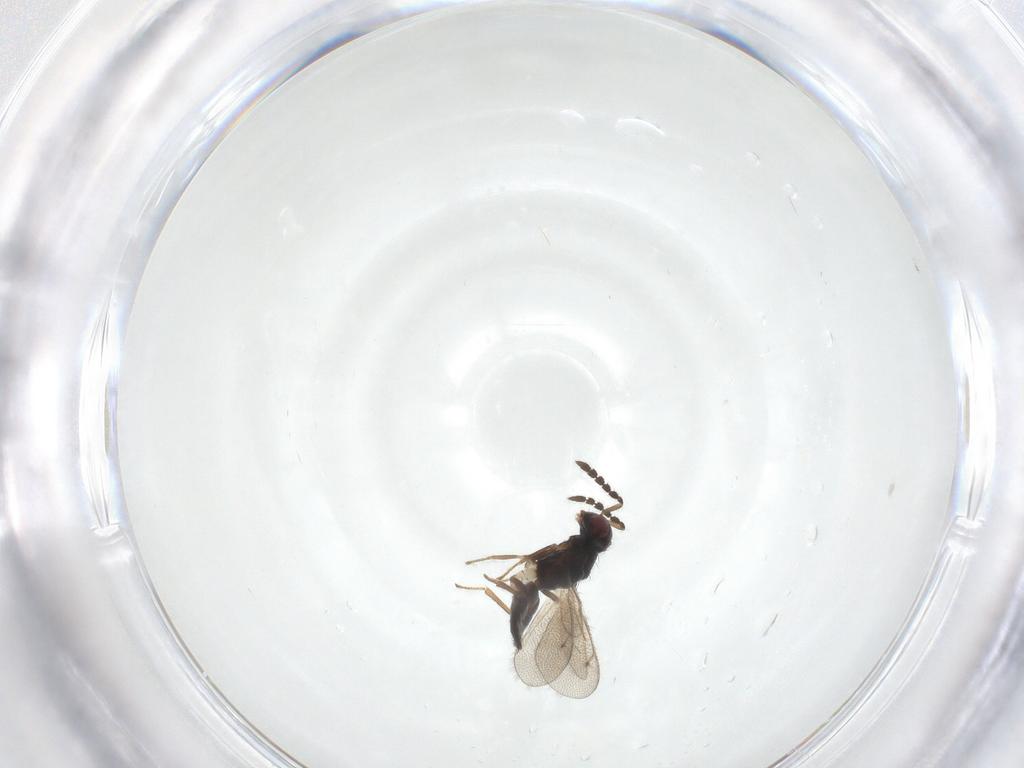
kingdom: Animalia
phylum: Arthropoda
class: Insecta
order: Hymenoptera
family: Eulophidae
